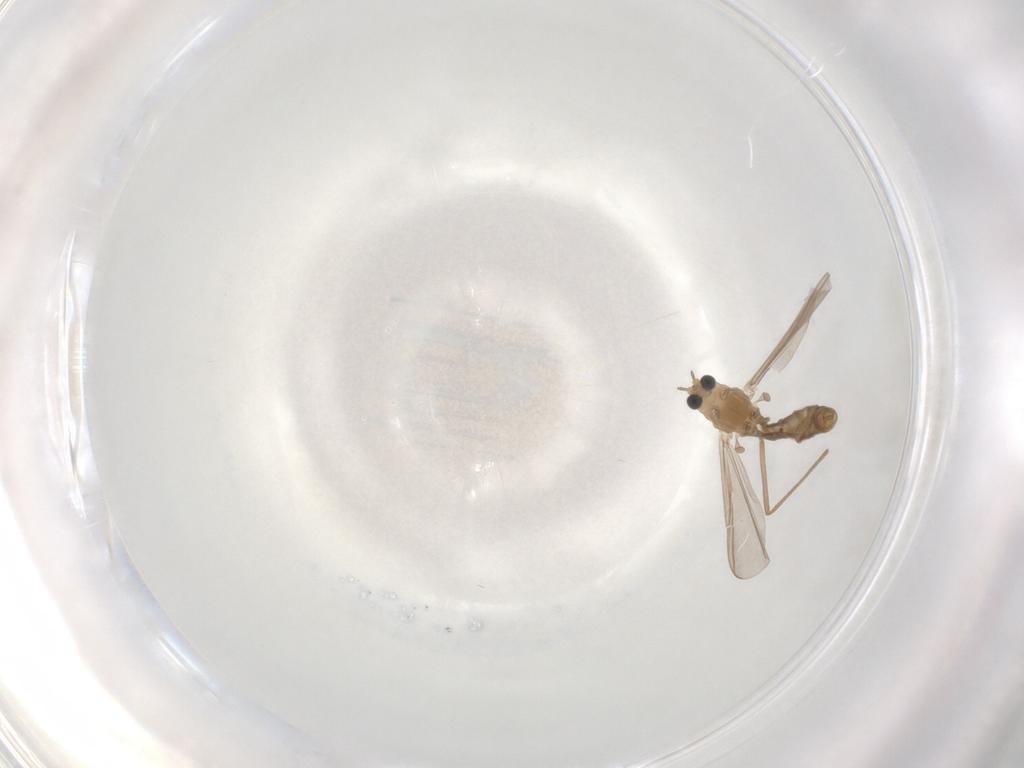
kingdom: Animalia
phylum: Arthropoda
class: Insecta
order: Diptera
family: Chironomidae
